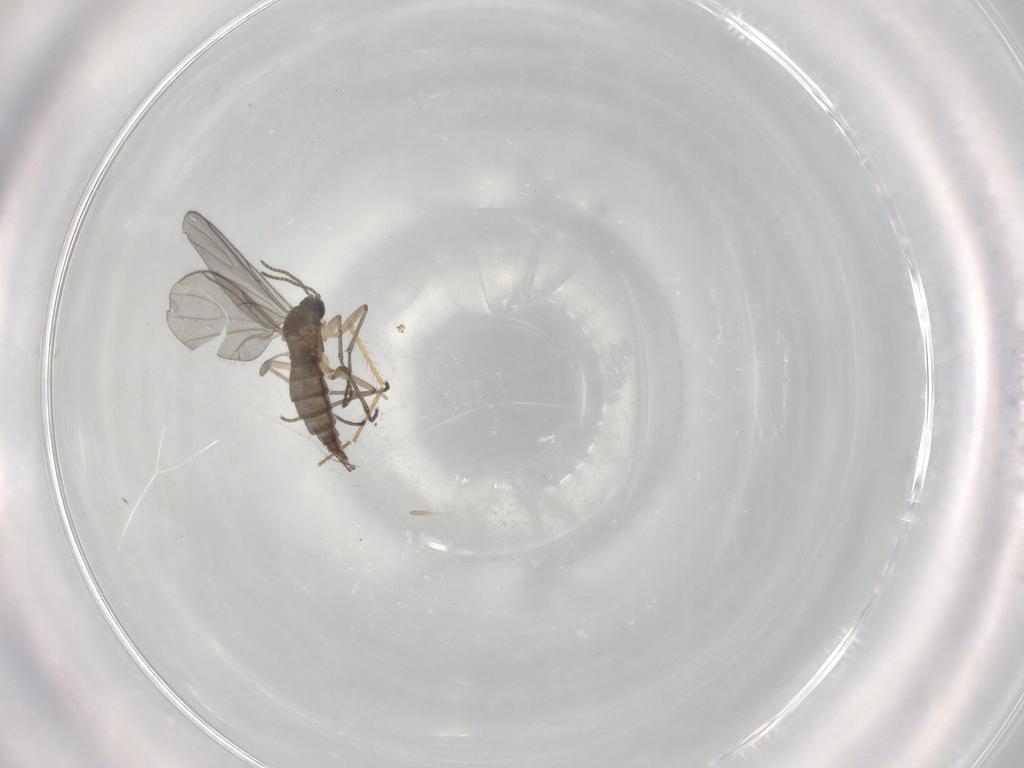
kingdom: Animalia
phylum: Arthropoda
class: Insecta
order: Diptera
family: Sciaridae
